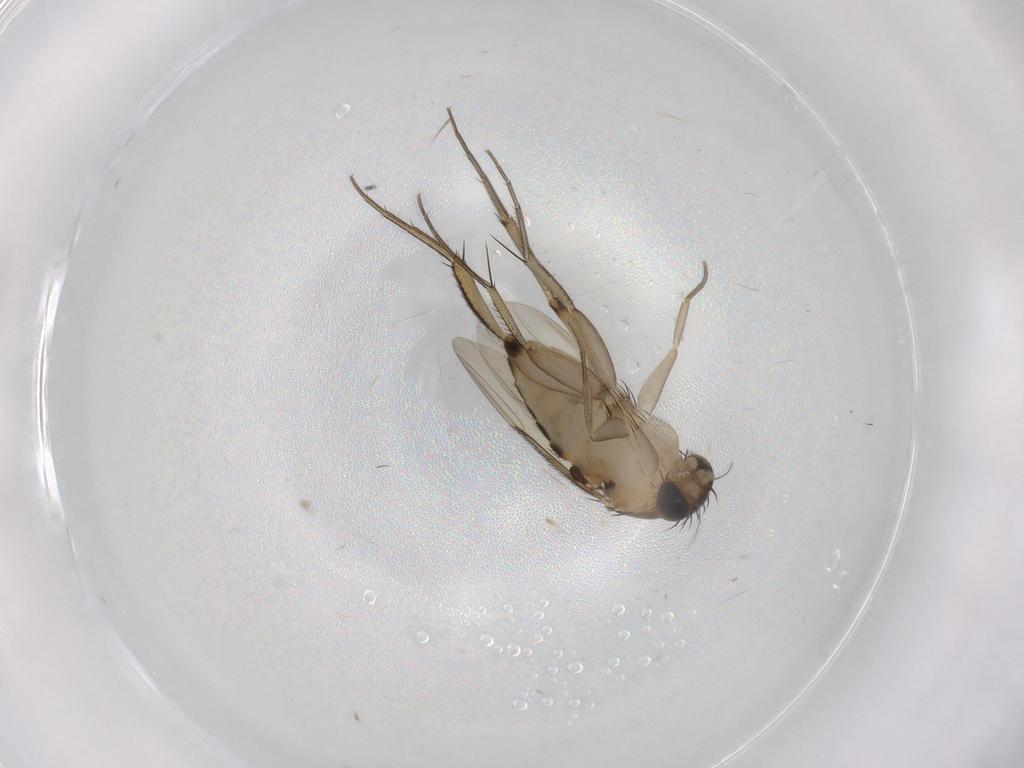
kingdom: Animalia
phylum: Arthropoda
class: Insecta
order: Diptera
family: Phoridae
